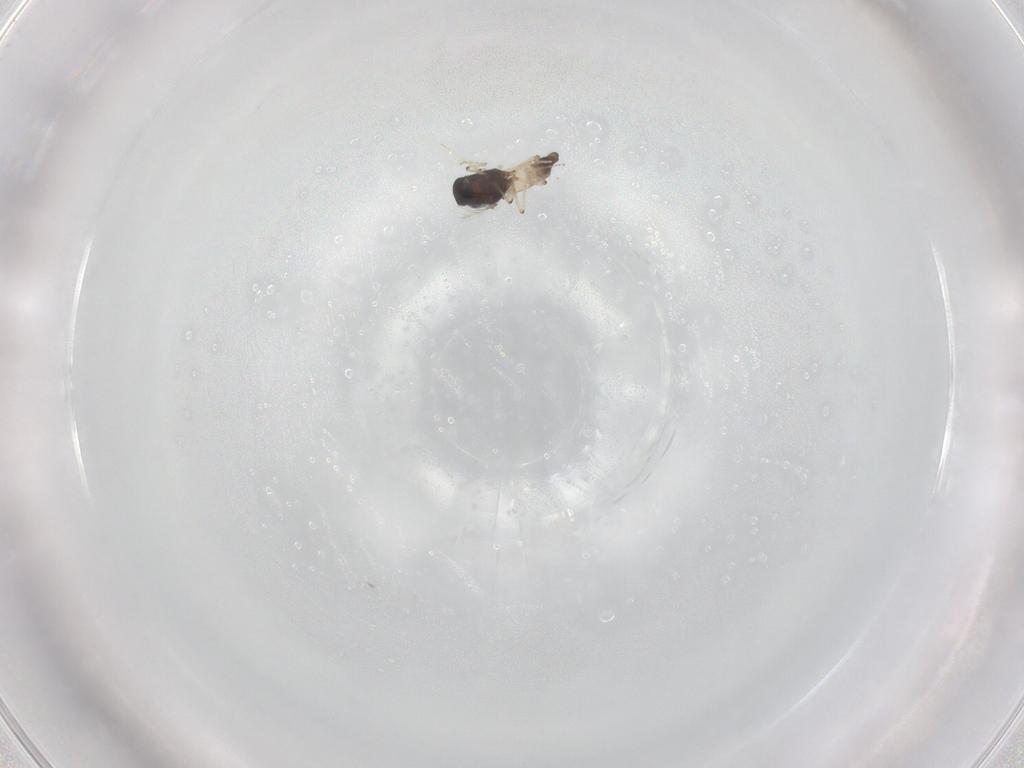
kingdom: Animalia
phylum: Arthropoda
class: Insecta
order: Diptera
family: Ceratopogonidae
